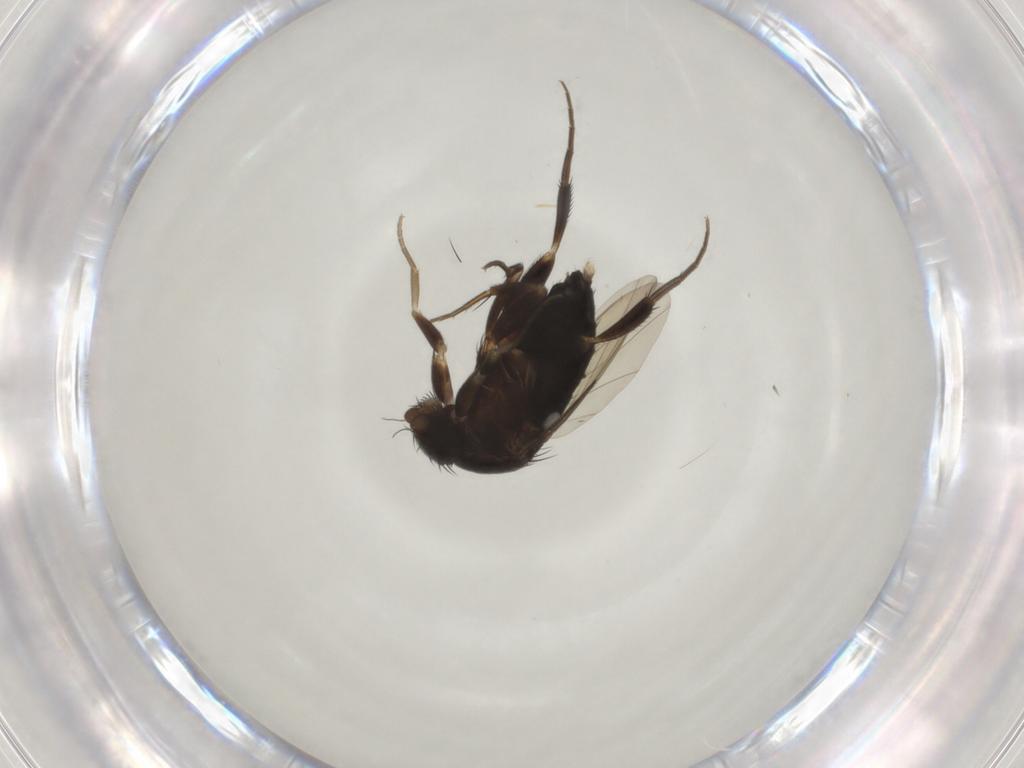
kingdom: Animalia
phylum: Arthropoda
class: Insecta
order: Diptera
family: Phoridae
